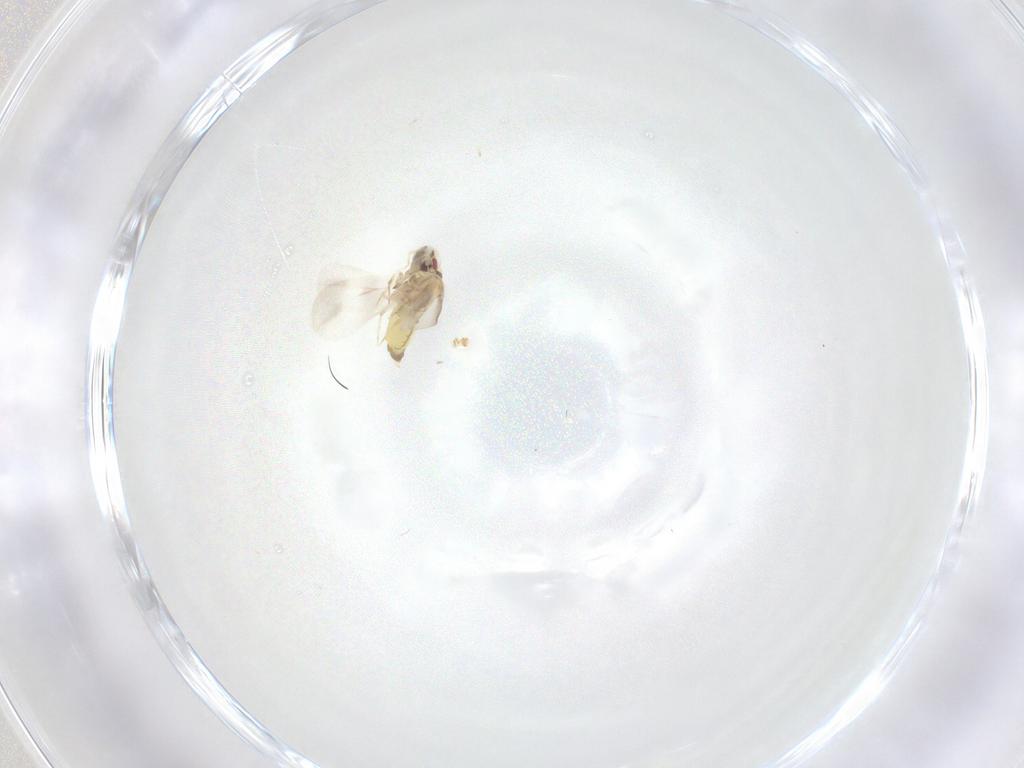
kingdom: Animalia
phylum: Arthropoda
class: Insecta
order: Hemiptera
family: Aleyrodidae
